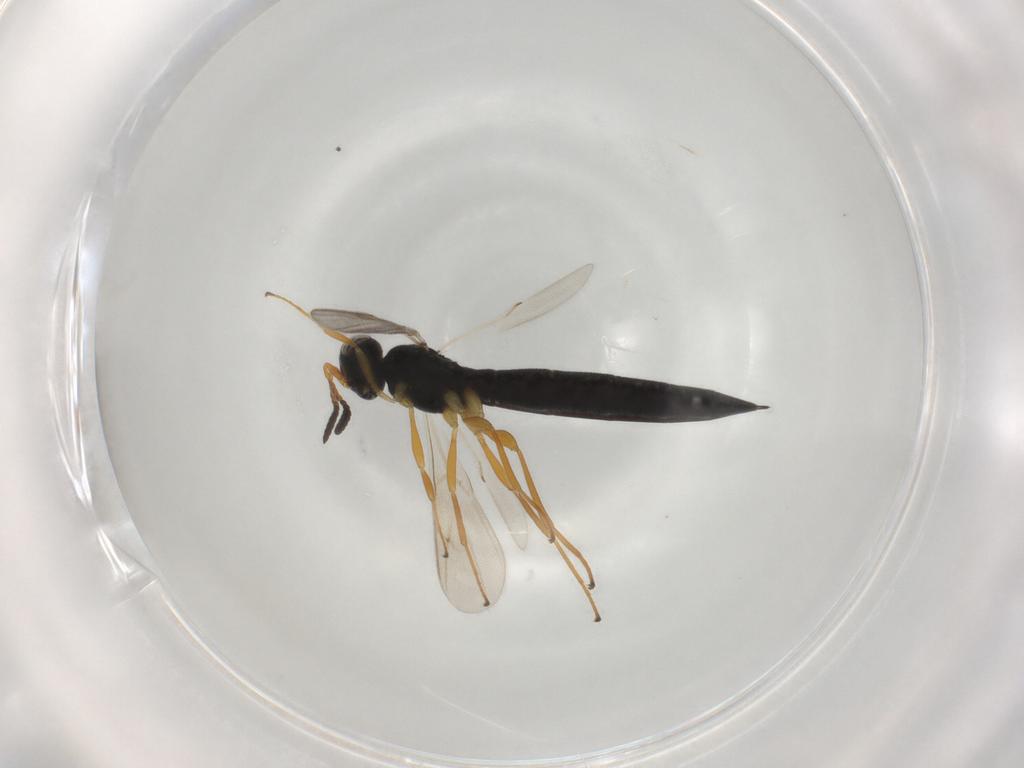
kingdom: Animalia
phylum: Arthropoda
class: Insecta
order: Hymenoptera
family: Scelionidae
